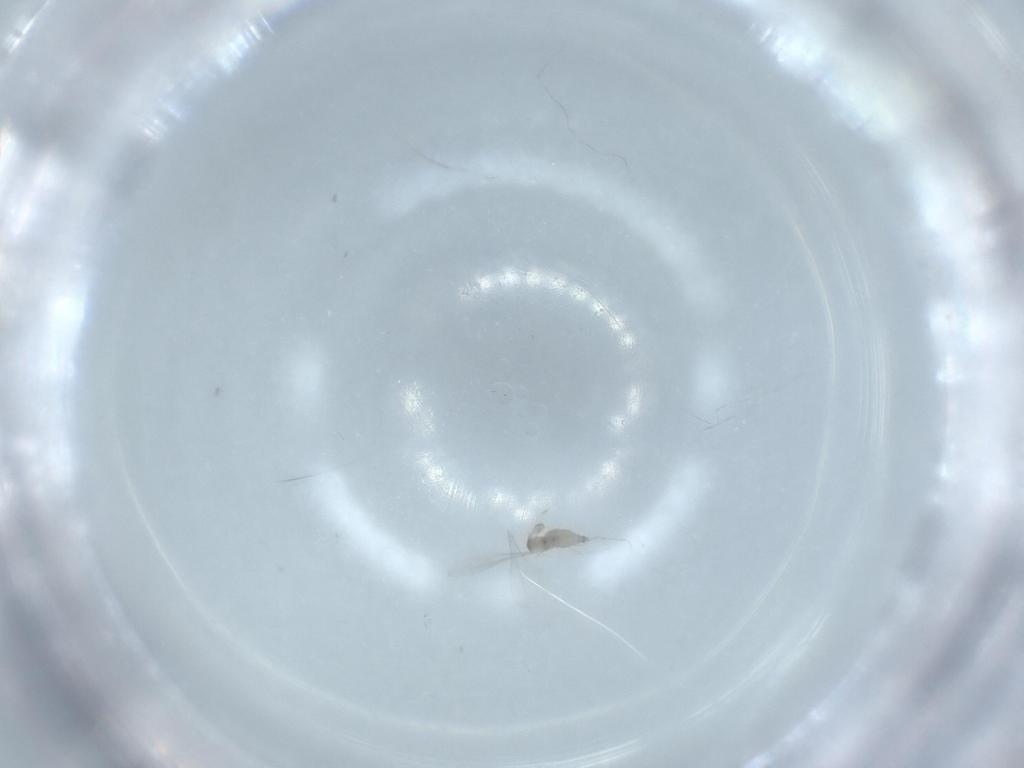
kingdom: Animalia
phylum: Arthropoda
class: Insecta
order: Diptera
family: Cecidomyiidae
